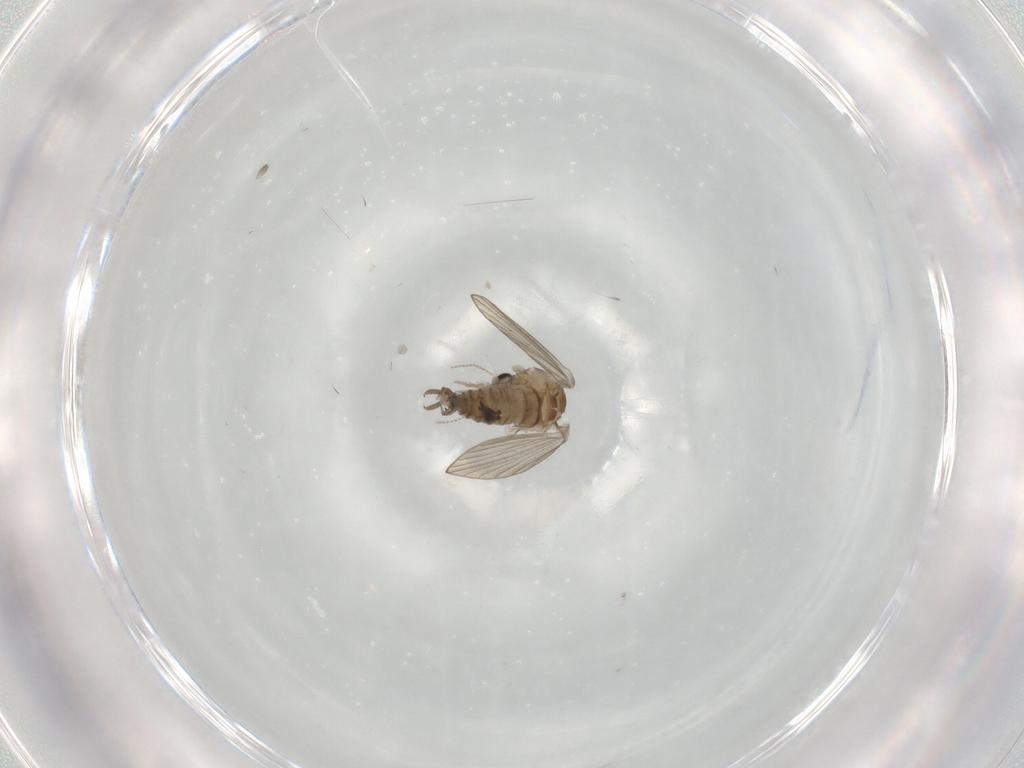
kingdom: Animalia
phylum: Arthropoda
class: Insecta
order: Diptera
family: Psychodidae
